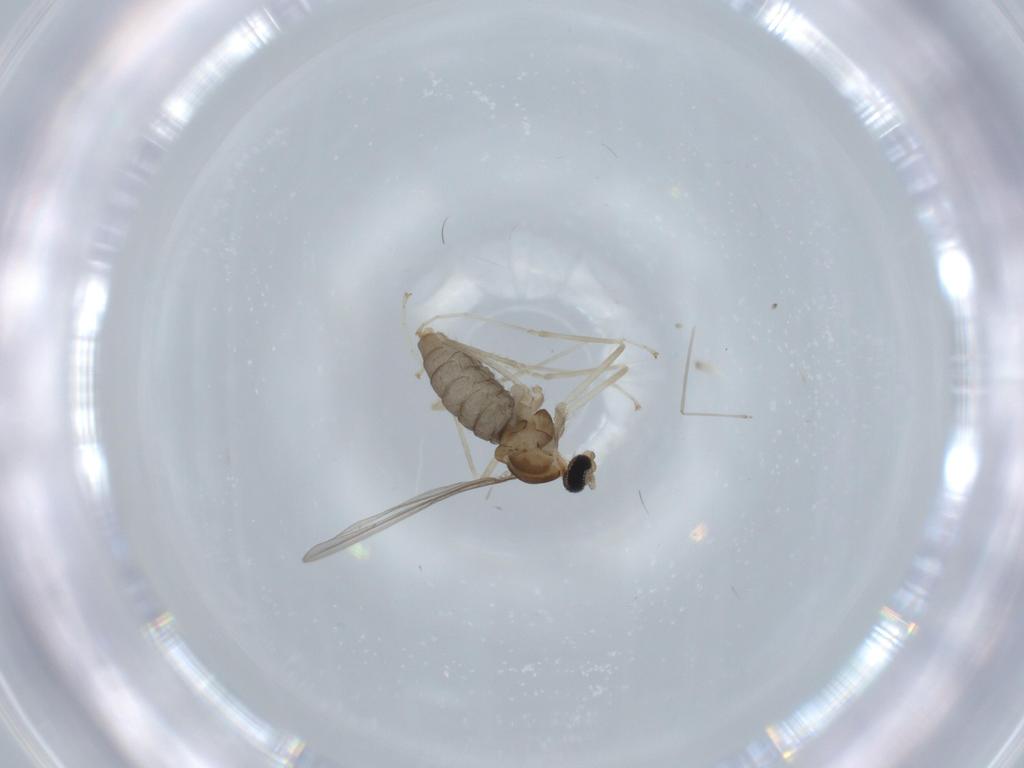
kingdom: Animalia
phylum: Arthropoda
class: Insecta
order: Diptera
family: Cecidomyiidae
